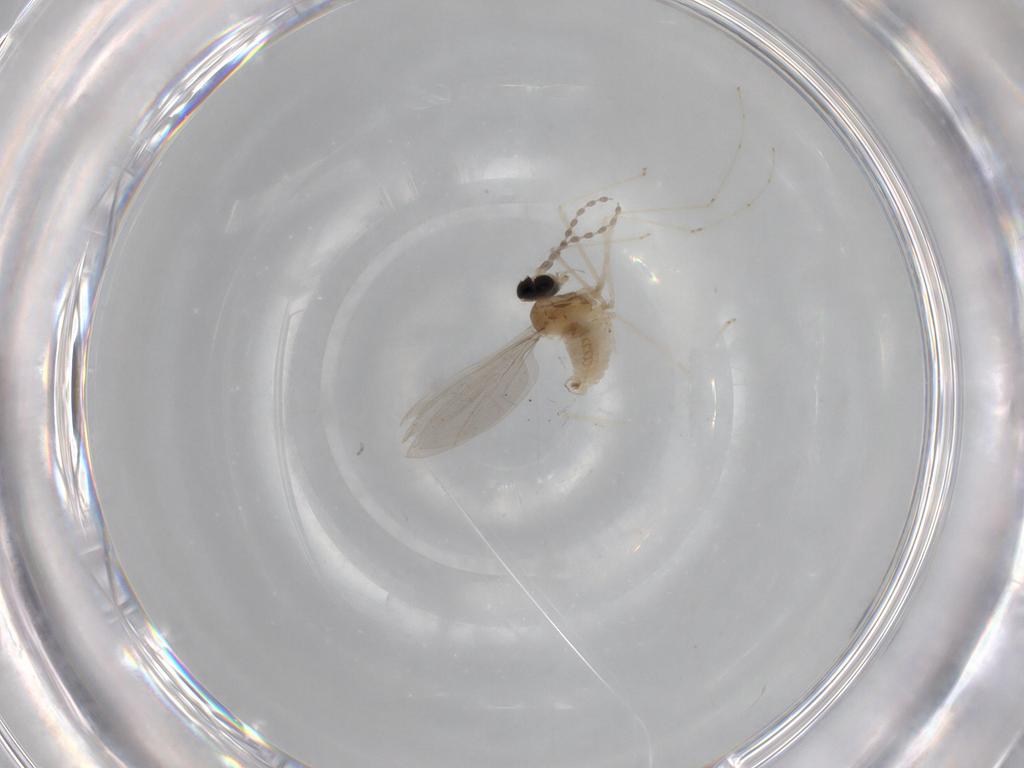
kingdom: Animalia
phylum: Arthropoda
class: Insecta
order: Diptera
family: Cecidomyiidae
